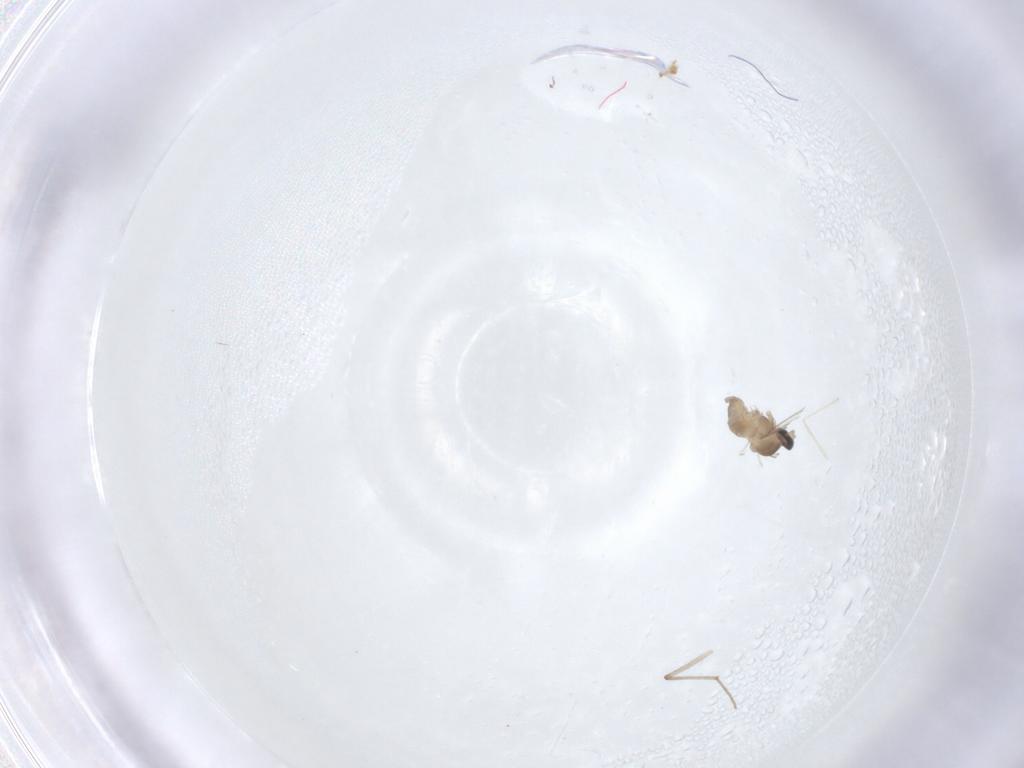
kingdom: Animalia
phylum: Arthropoda
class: Insecta
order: Diptera
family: Cecidomyiidae
